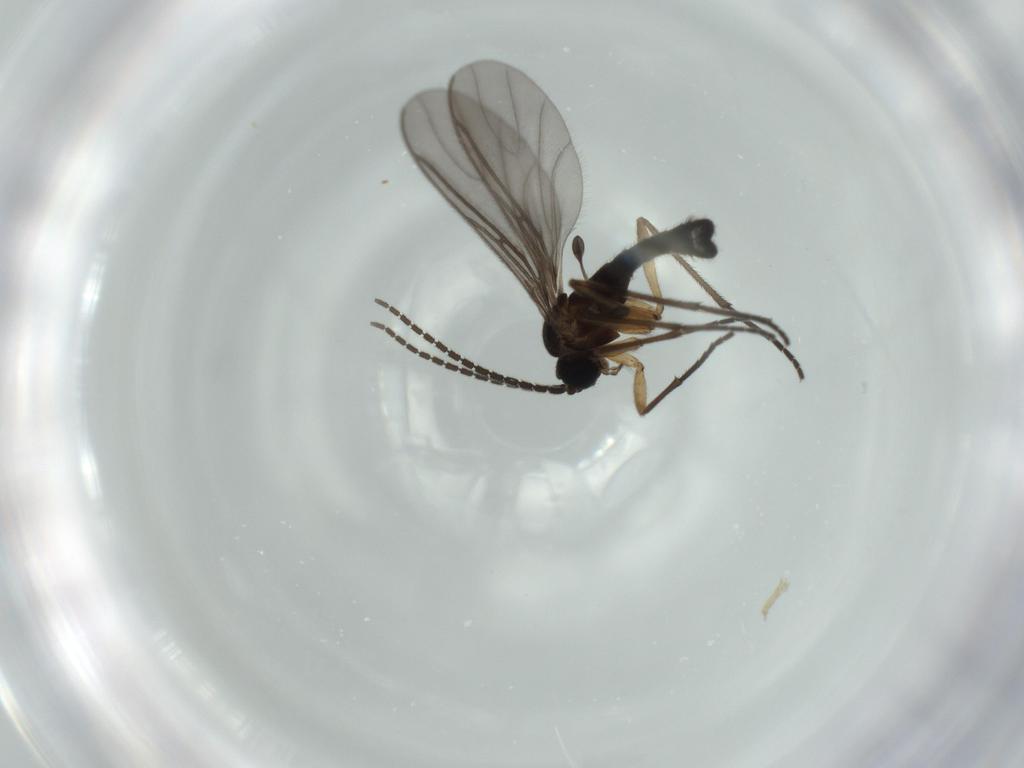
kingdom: Animalia
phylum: Arthropoda
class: Insecta
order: Diptera
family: Sciaridae
